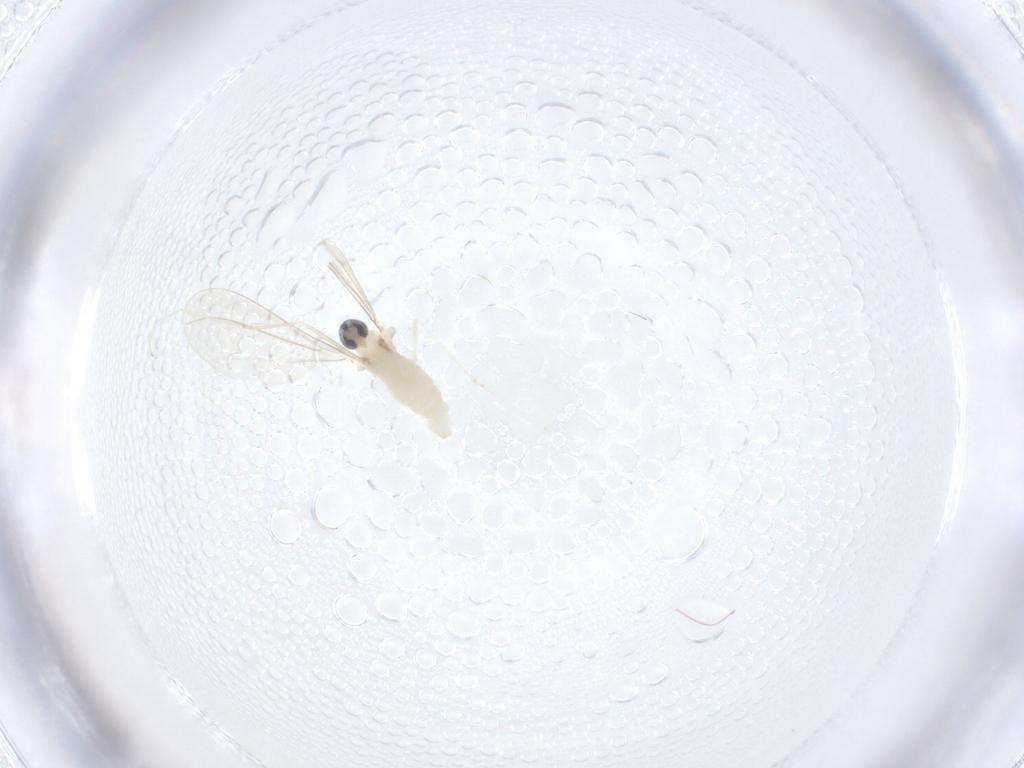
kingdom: Animalia
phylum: Arthropoda
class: Insecta
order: Diptera
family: Cecidomyiidae
